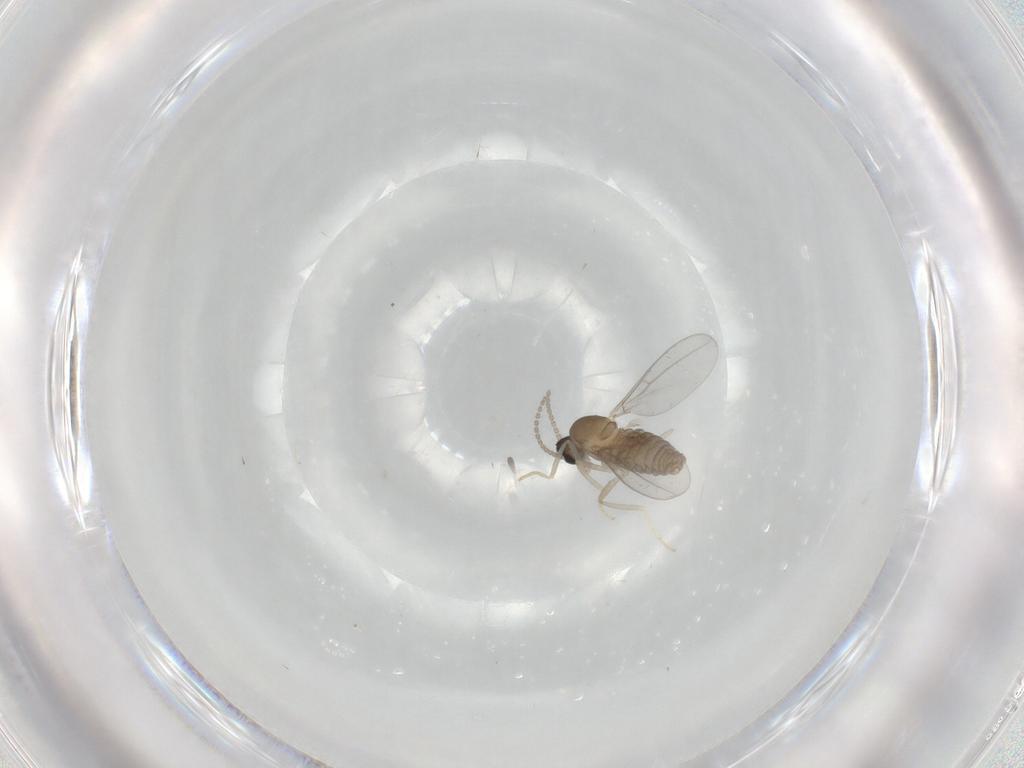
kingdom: Animalia
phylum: Arthropoda
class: Insecta
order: Diptera
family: Cecidomyiidae
